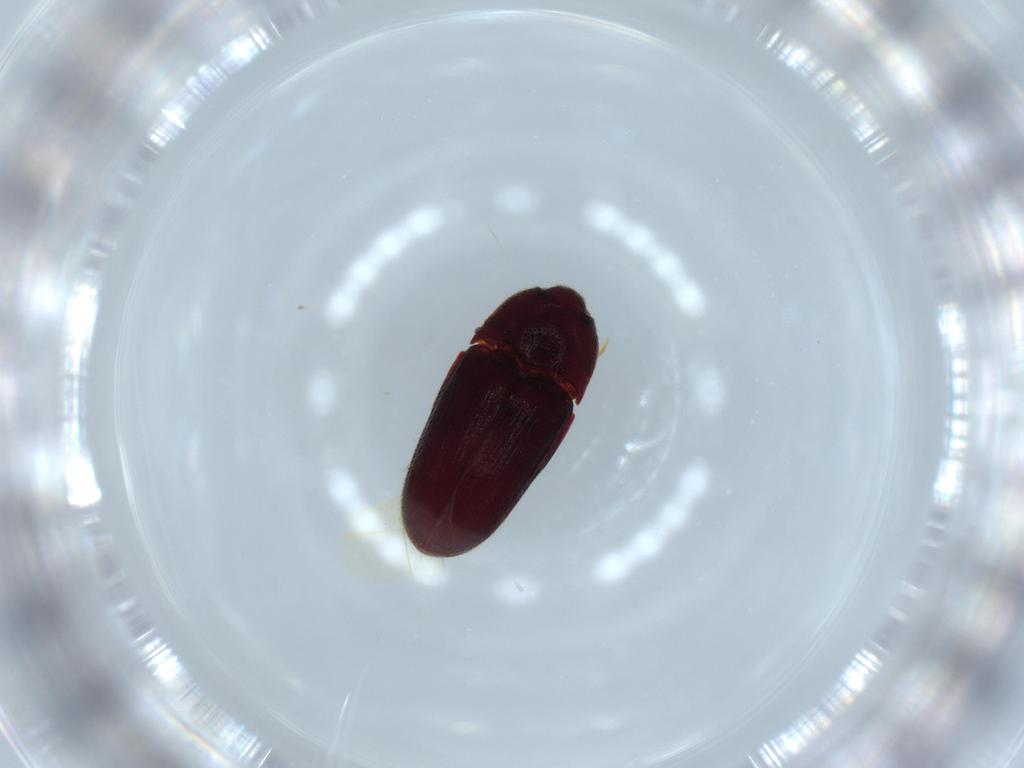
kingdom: Animalia
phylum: Arthropoda
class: Insecta
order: Coleoptera
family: Throscidae
